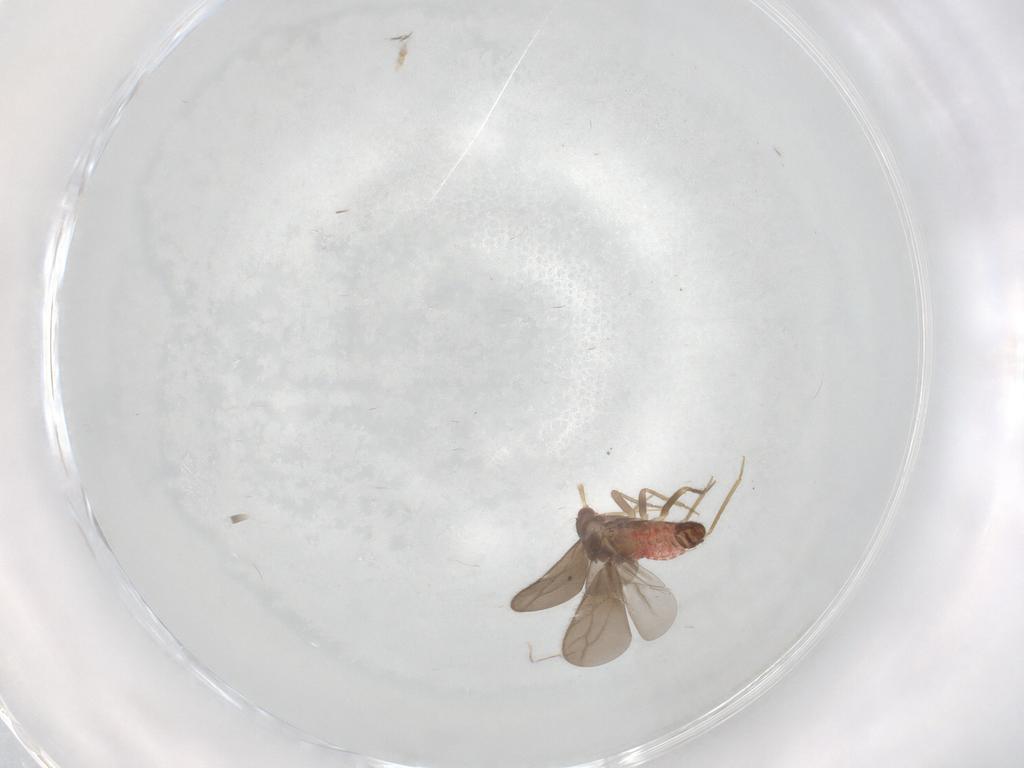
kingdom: Animalia
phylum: Arthropoda
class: Insecta
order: Hemiptera
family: Ceratocombidae
